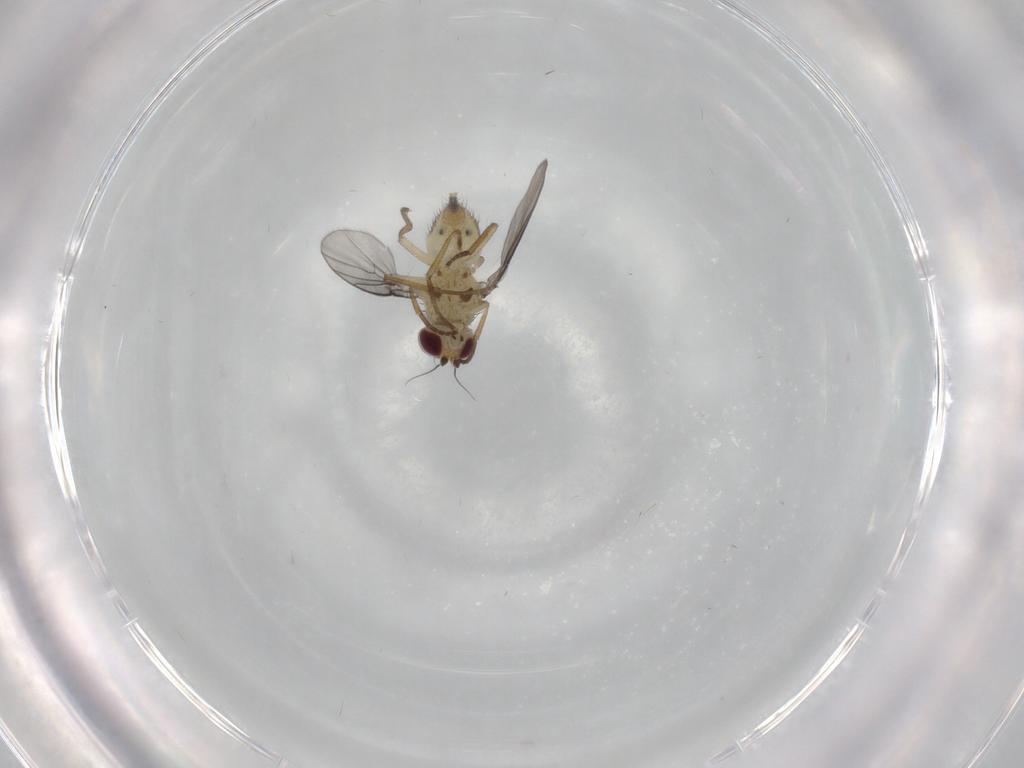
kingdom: Animalia
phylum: Arthropoda
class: Insecta
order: Diptera
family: Agromyzidae
